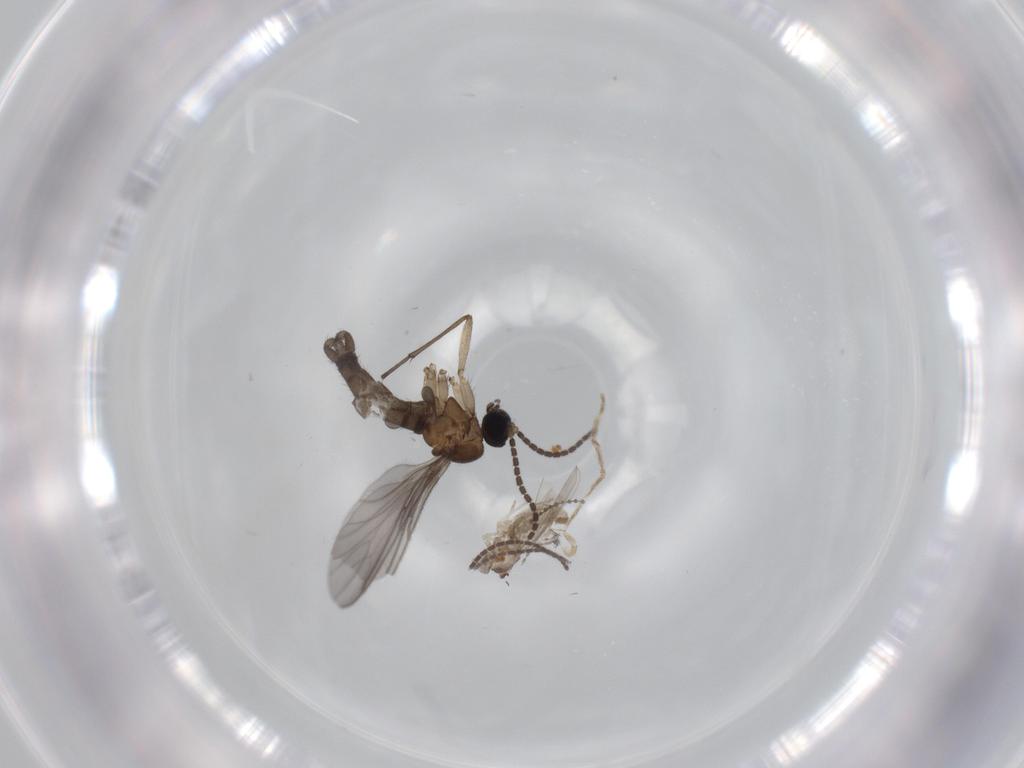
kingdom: Animalia
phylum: Arthropoda
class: Insecta
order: Diptera
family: Sciaridae
